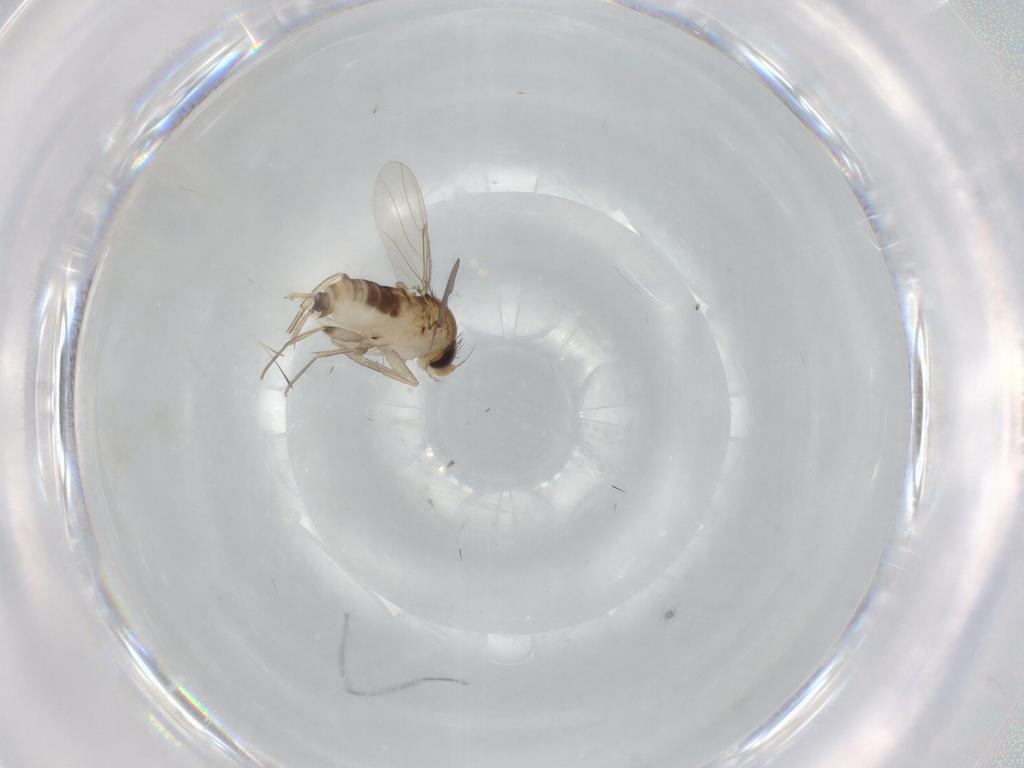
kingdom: Animalia
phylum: Arthropoda
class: Insecta
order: Diptera
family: Phoridae
